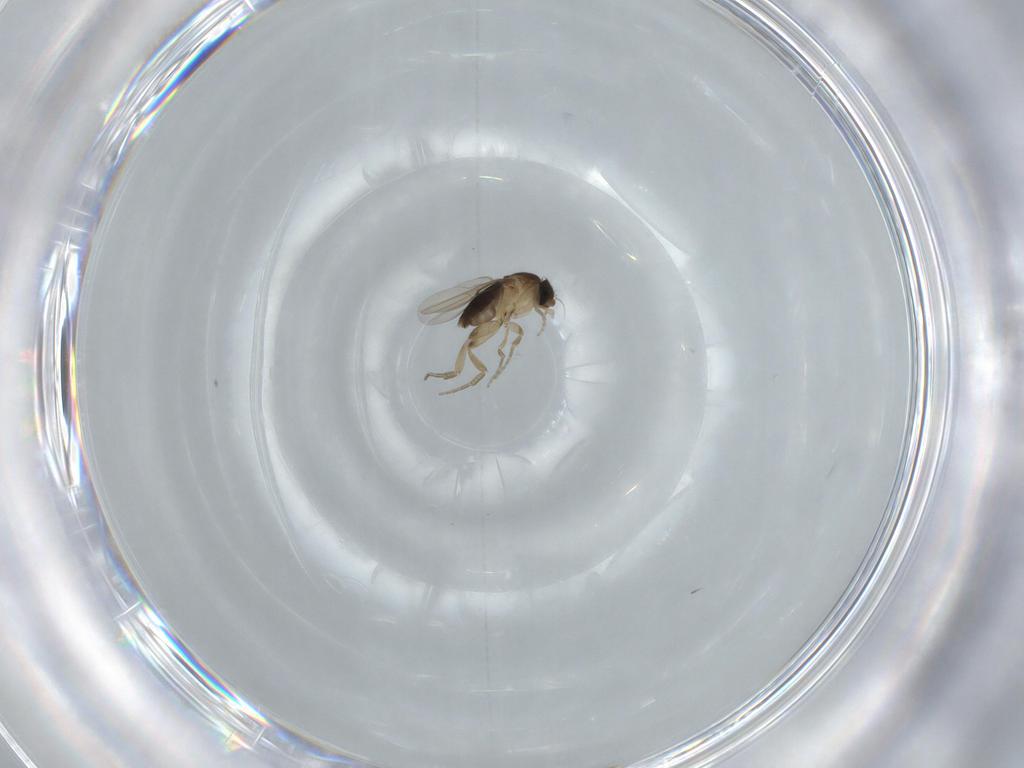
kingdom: Animalia
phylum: Arthropoda
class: Insecta
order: Diptera
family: Phoridae
